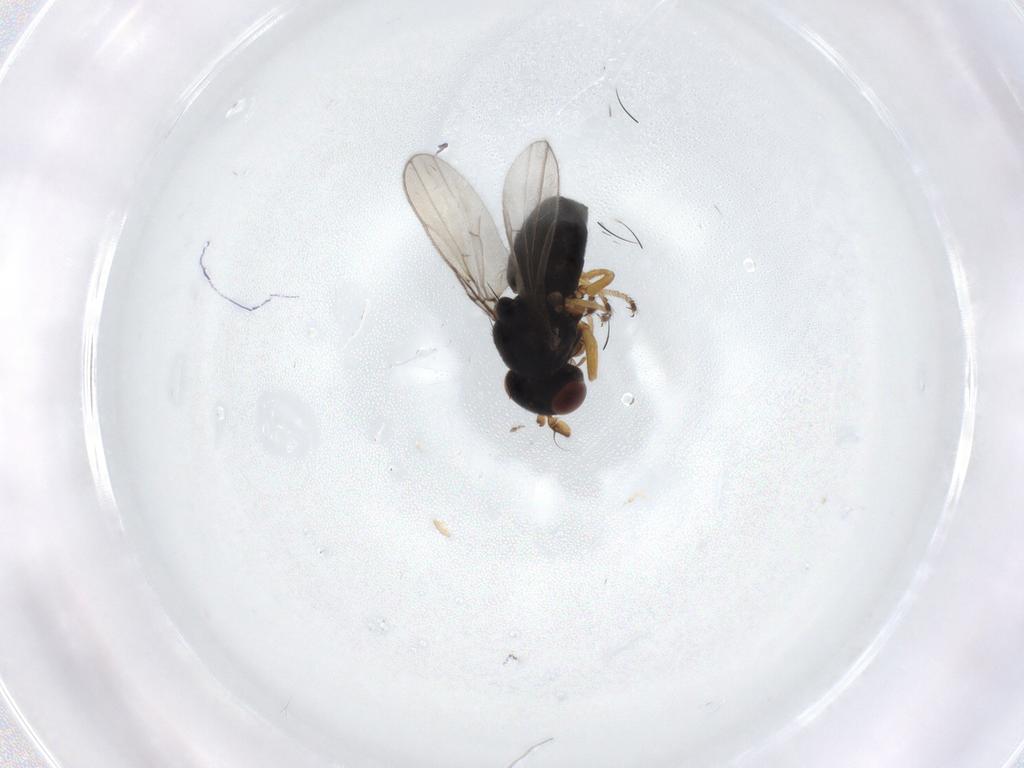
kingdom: Animalia
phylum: Arthropoda
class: Insecta
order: Diptera
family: Ephydridae
